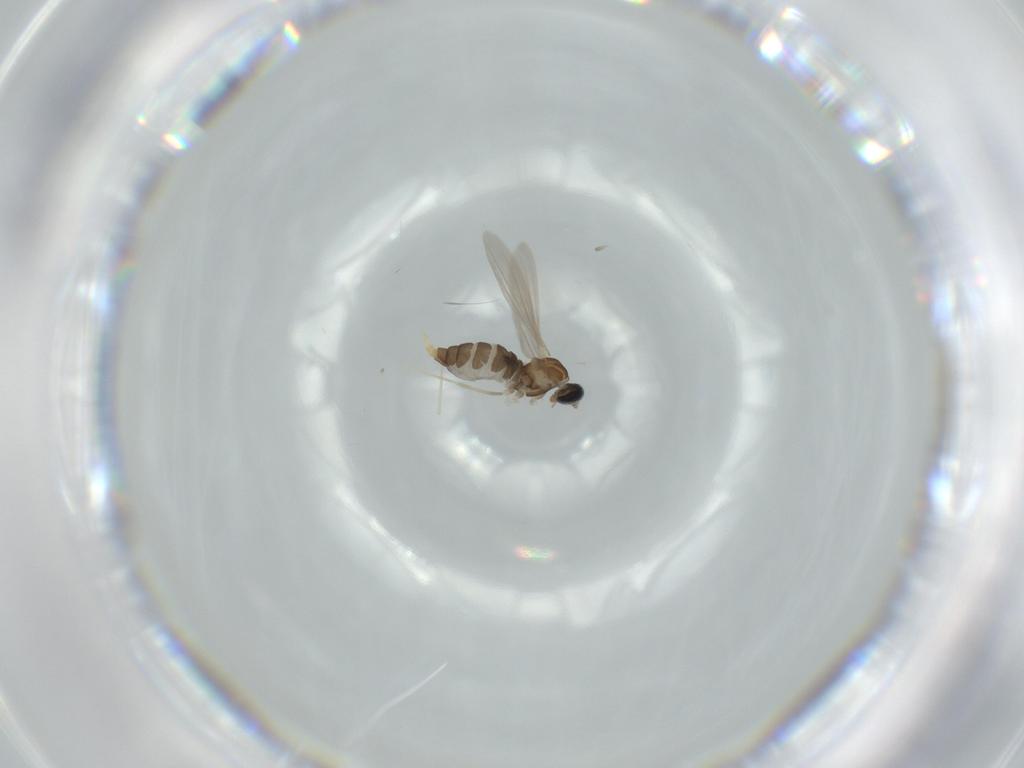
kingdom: Animalia
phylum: Arthropoda
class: Insecta
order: Diptera
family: Cecidomyiidae
